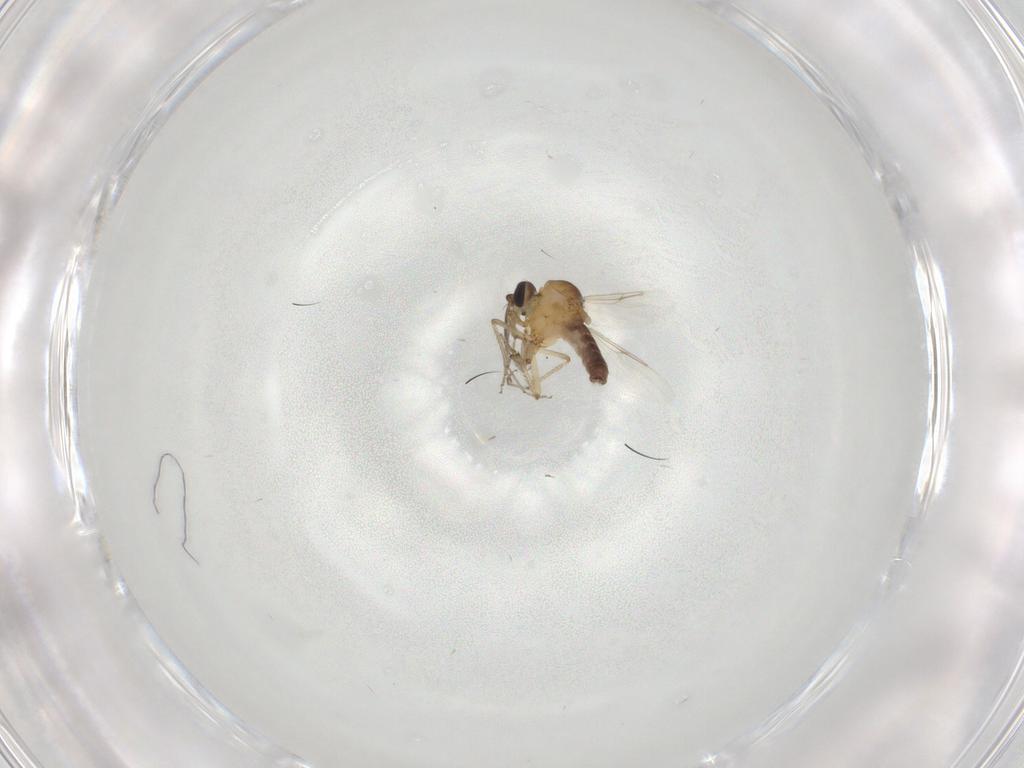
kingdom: Animalia
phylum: Arthropoda
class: Insecta
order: Diptera
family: Ceratopogonidae
